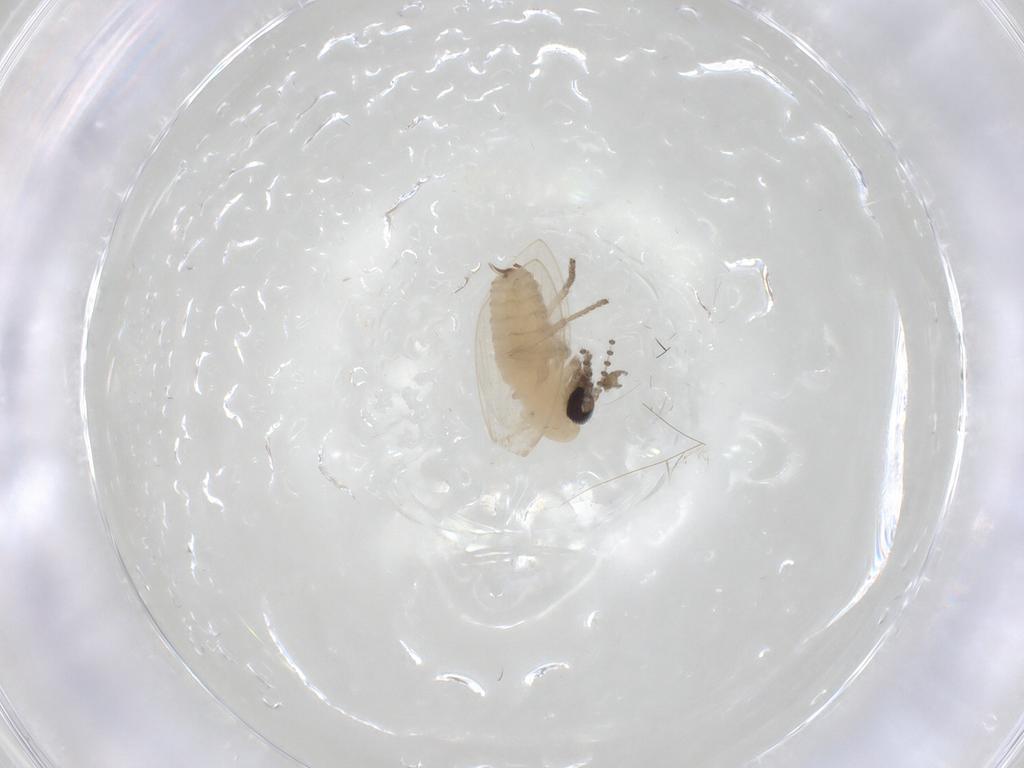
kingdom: Animalia
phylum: Arthropoda
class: Insecta
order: Diptera
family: Psychodidae
